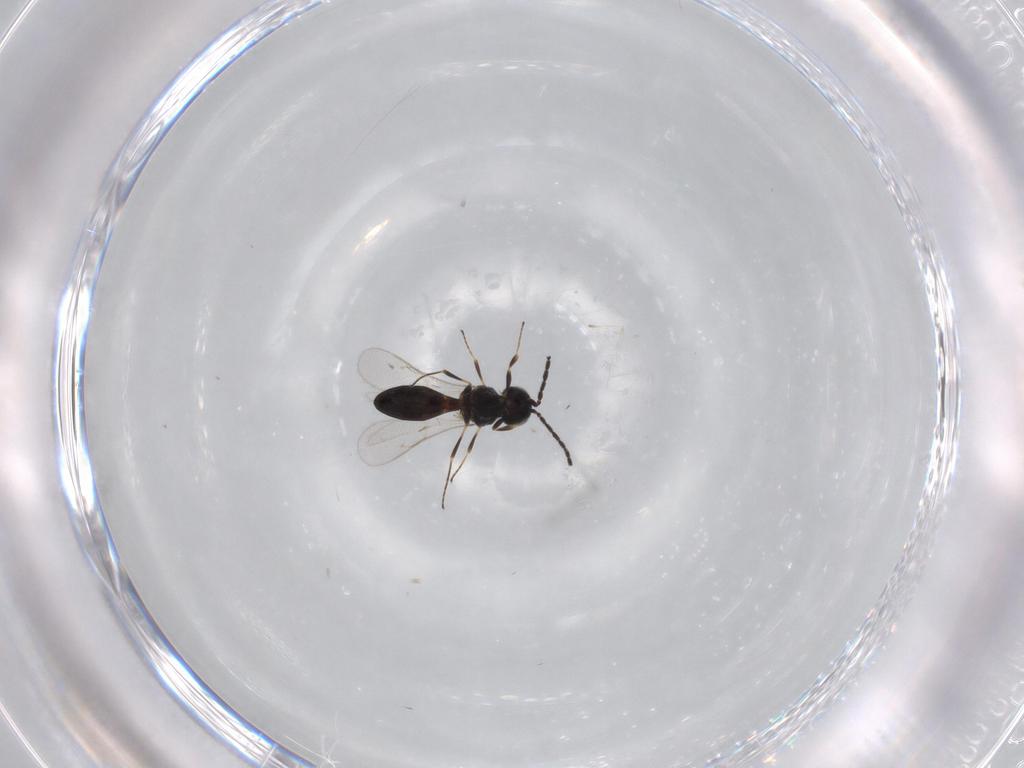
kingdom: Animalia
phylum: Arthropoda
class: Insecta
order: Hymenoptera
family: Scelionidae
